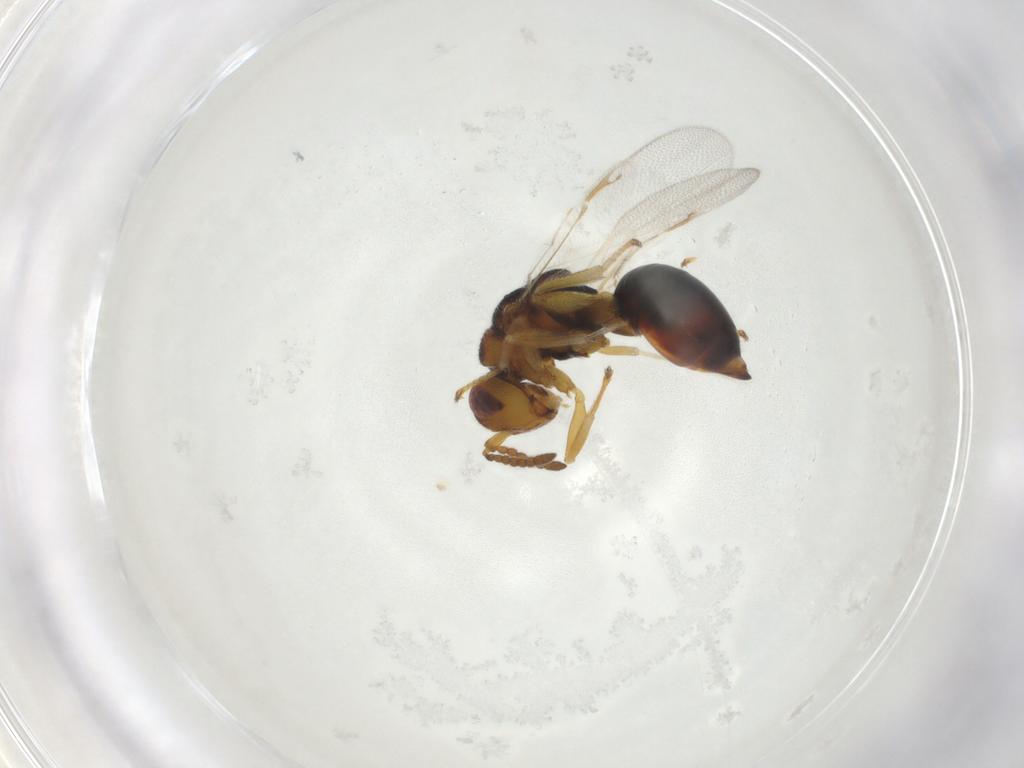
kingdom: Animalia
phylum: Arthropoda
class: Insecta
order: Hymenoptera
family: Eurytomidae
